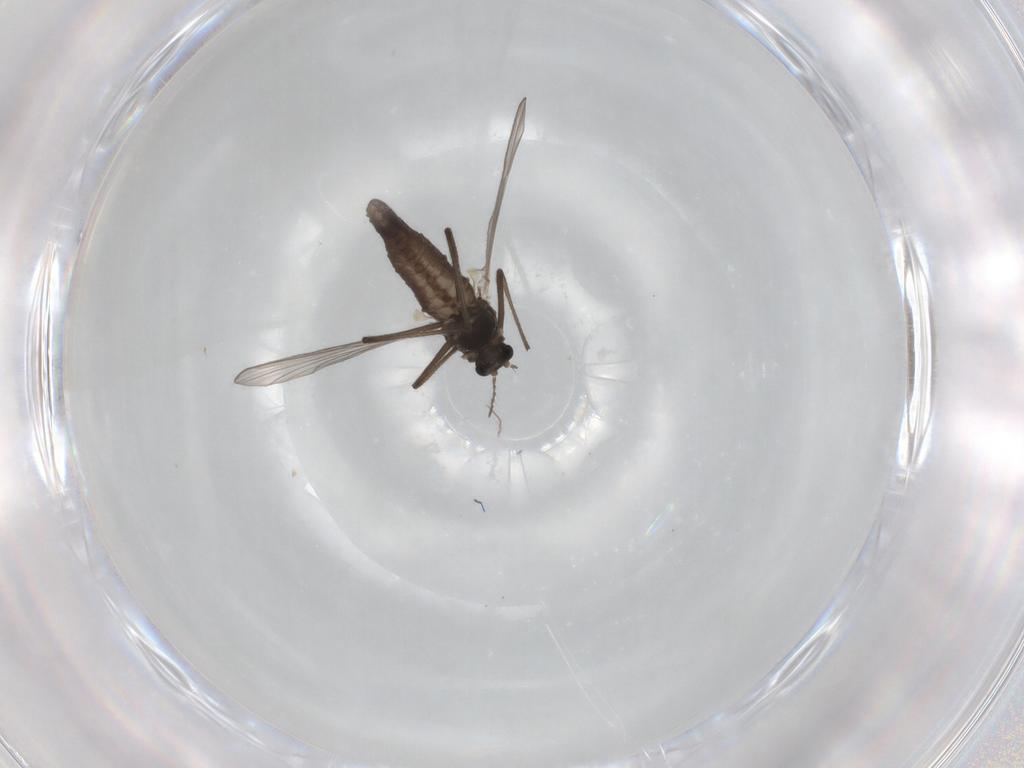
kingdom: Animalia
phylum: Arthropoda
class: Insecta
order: Diptera
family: Chironomidae
